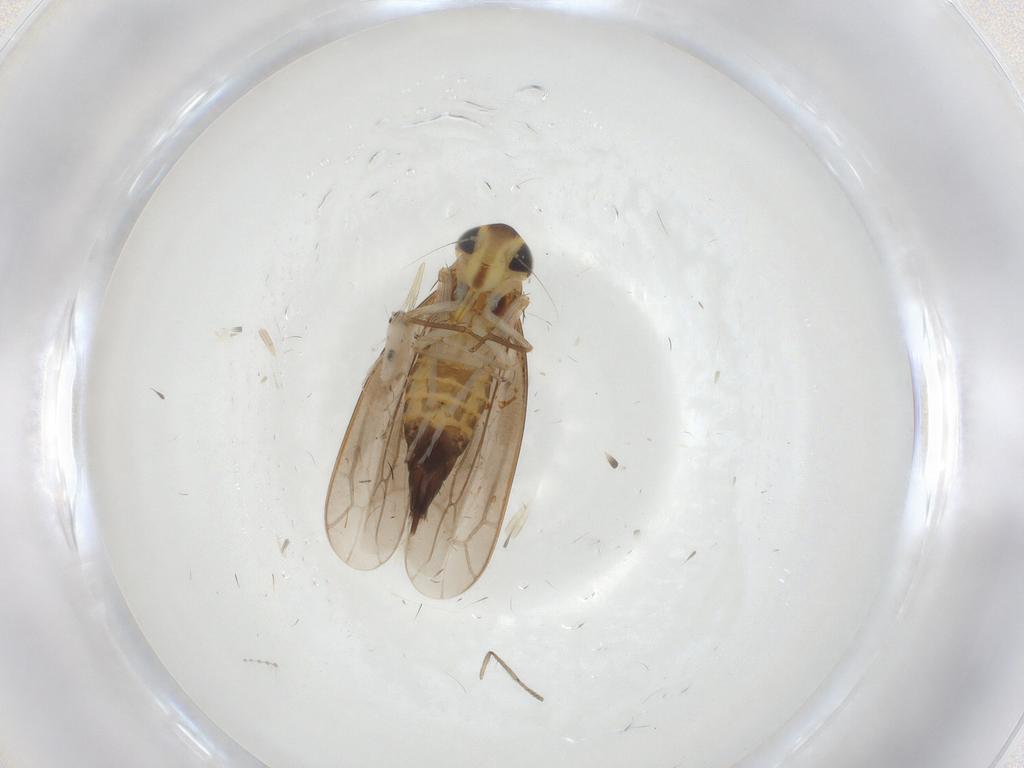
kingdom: Animalia
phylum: Arthropoda
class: Insecta
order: Hemiptera
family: Cicadellidae
